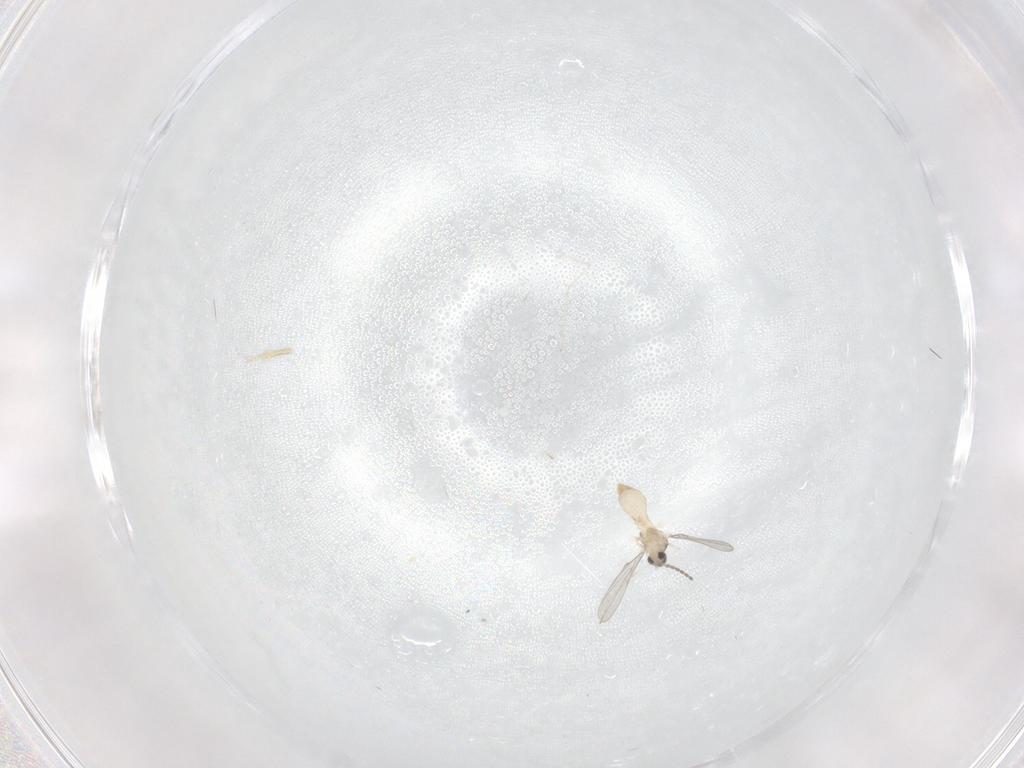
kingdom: Animalia
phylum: Arthropoda
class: Insecta
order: Diptera
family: Cecidomyiidae
